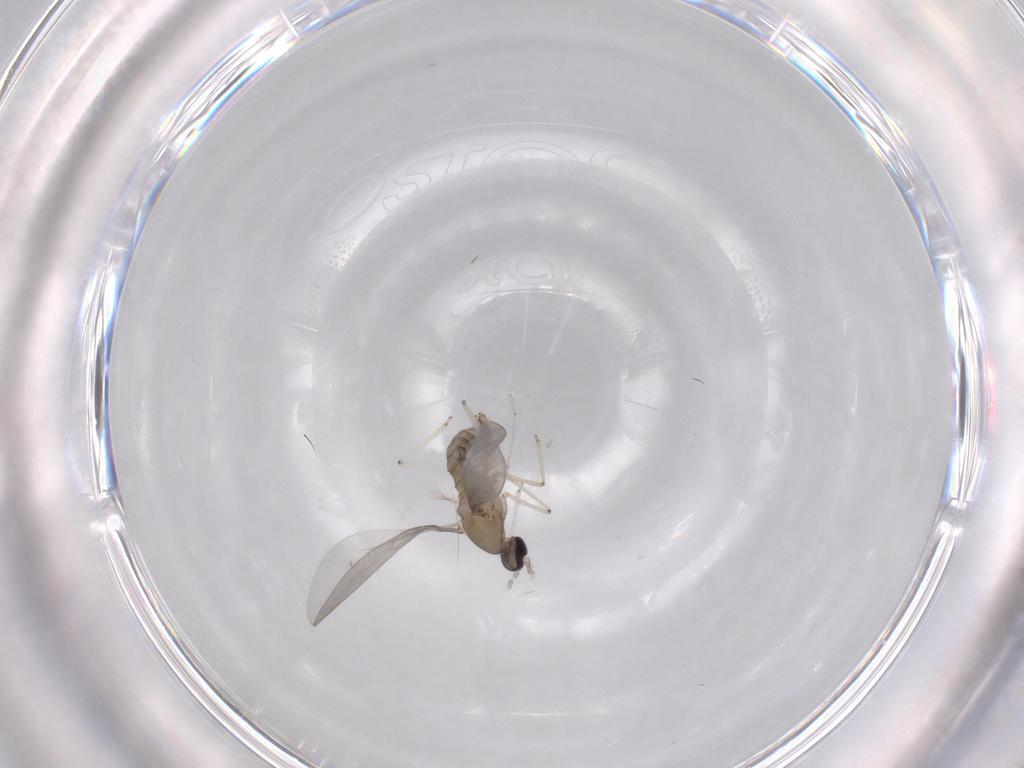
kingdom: Animalia
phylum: Arthropoda
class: Insecta
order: Diptera
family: Cecidomyiidae
